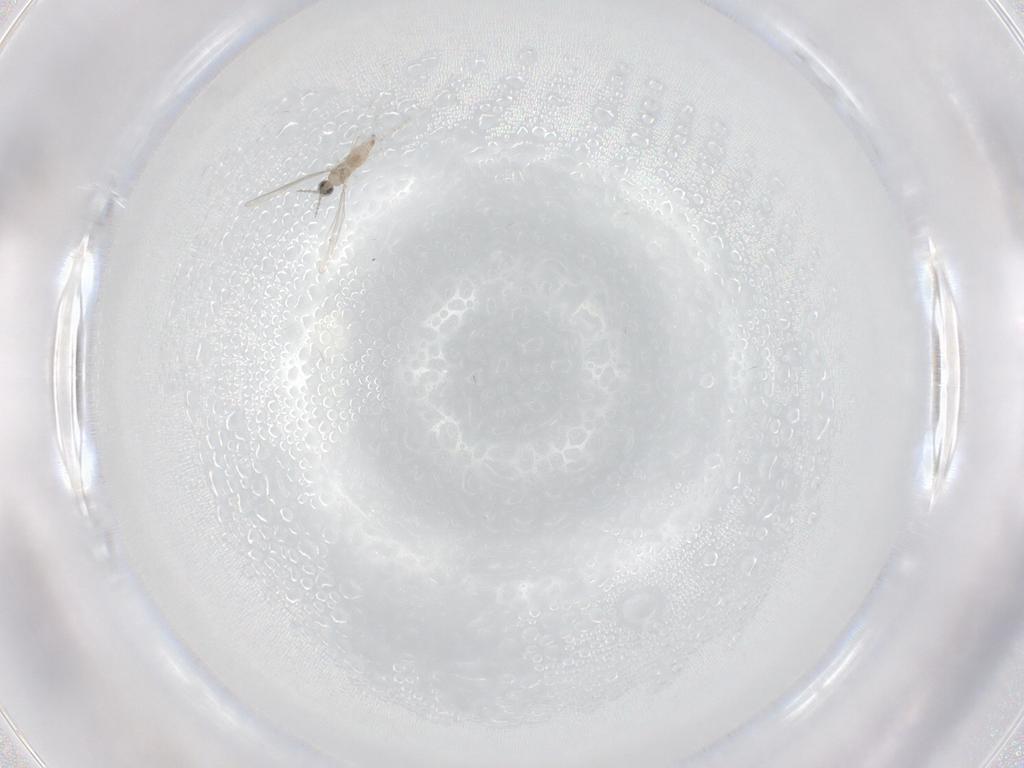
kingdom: Animalia
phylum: Arthropoda
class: Insecta
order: Diptera
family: Cecidomyiidae
